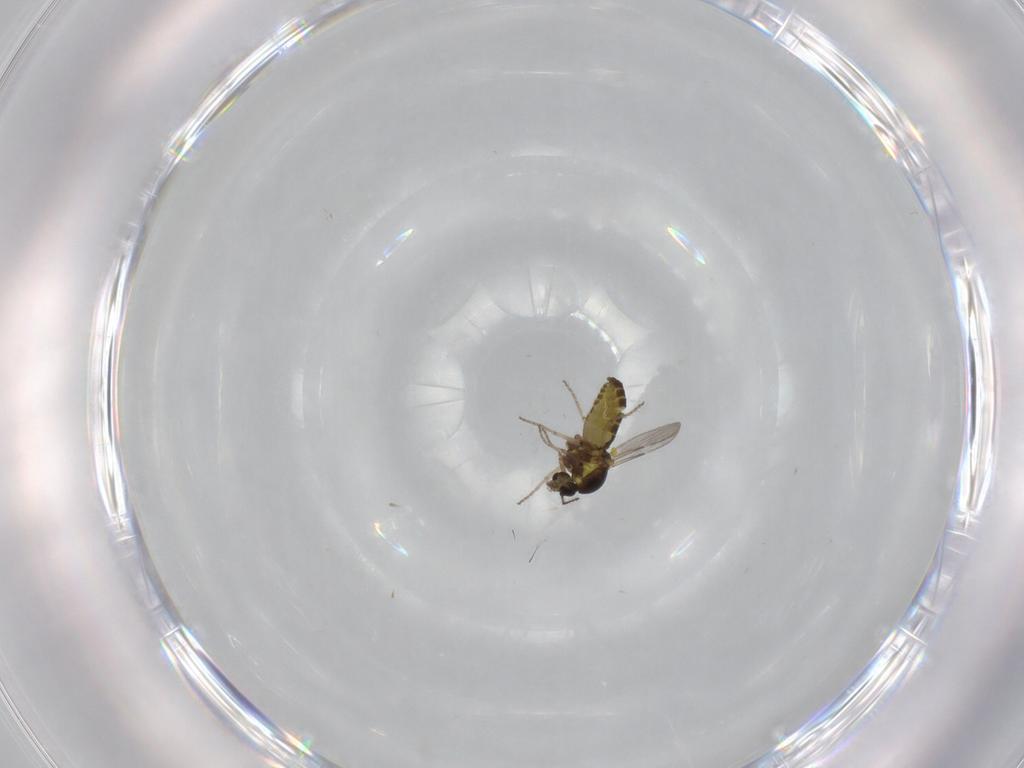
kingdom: Animalia
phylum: Arthropoda
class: Insecta
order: Diptera
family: Ceratopogonidae
